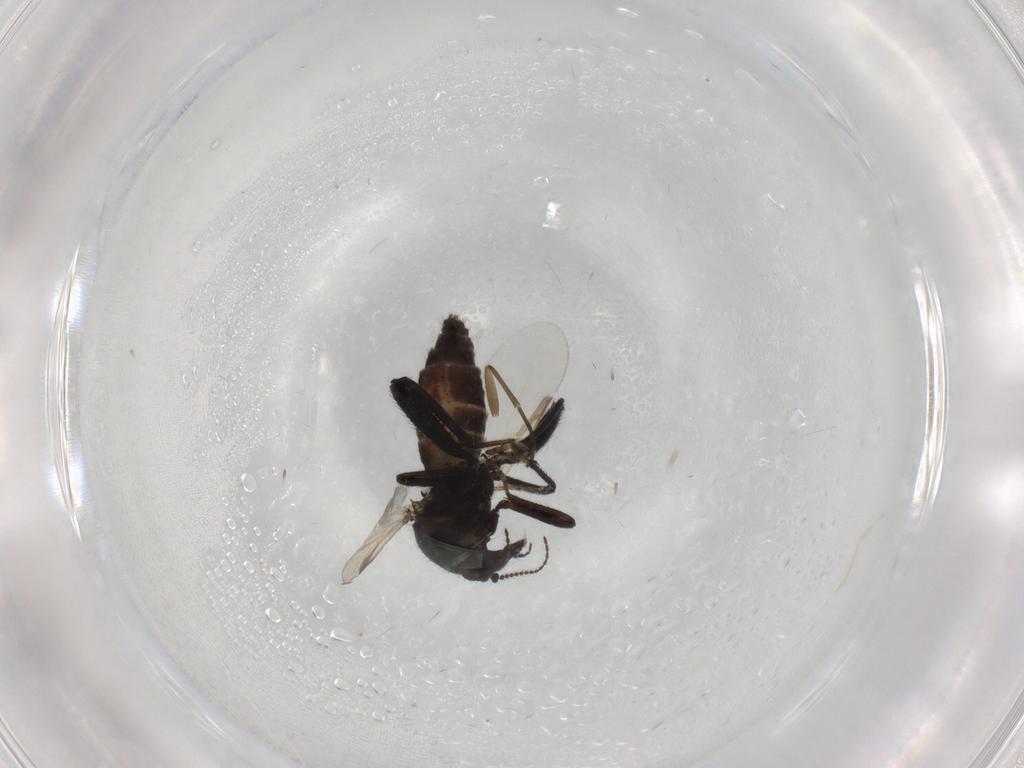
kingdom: Animalia
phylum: Arthropoda
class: Insecta
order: Diptera
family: Ceratopogonidae
